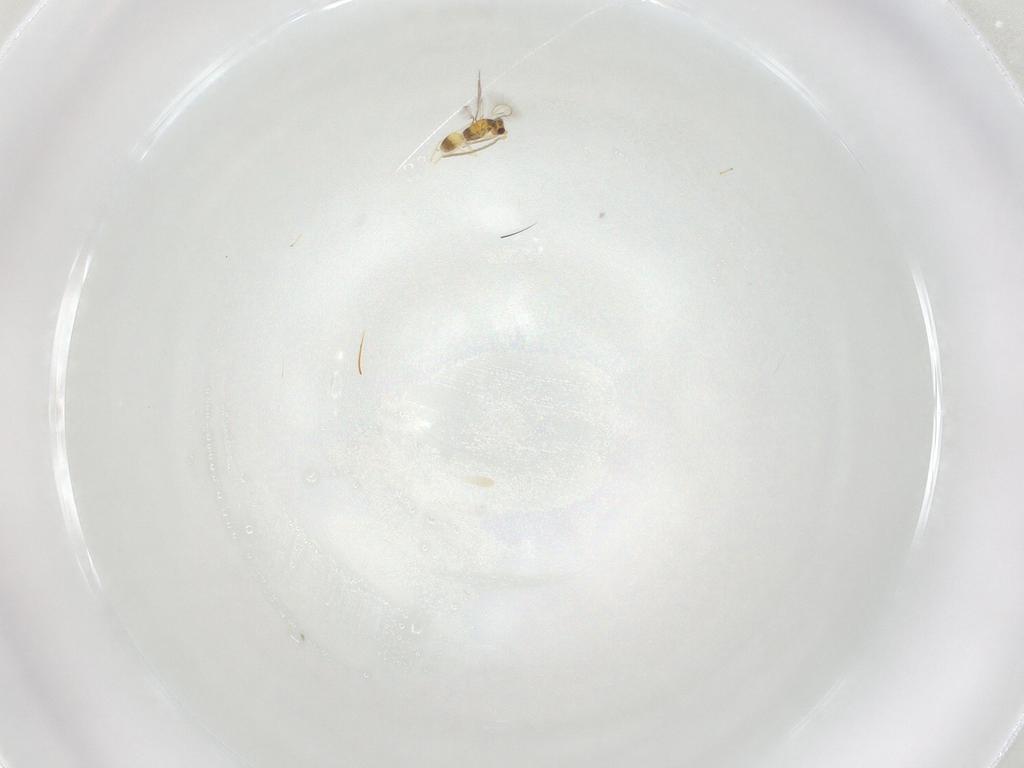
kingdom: Animalia
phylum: Arthropoda
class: Insecta
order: Hymenoptera
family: Mymaridae
